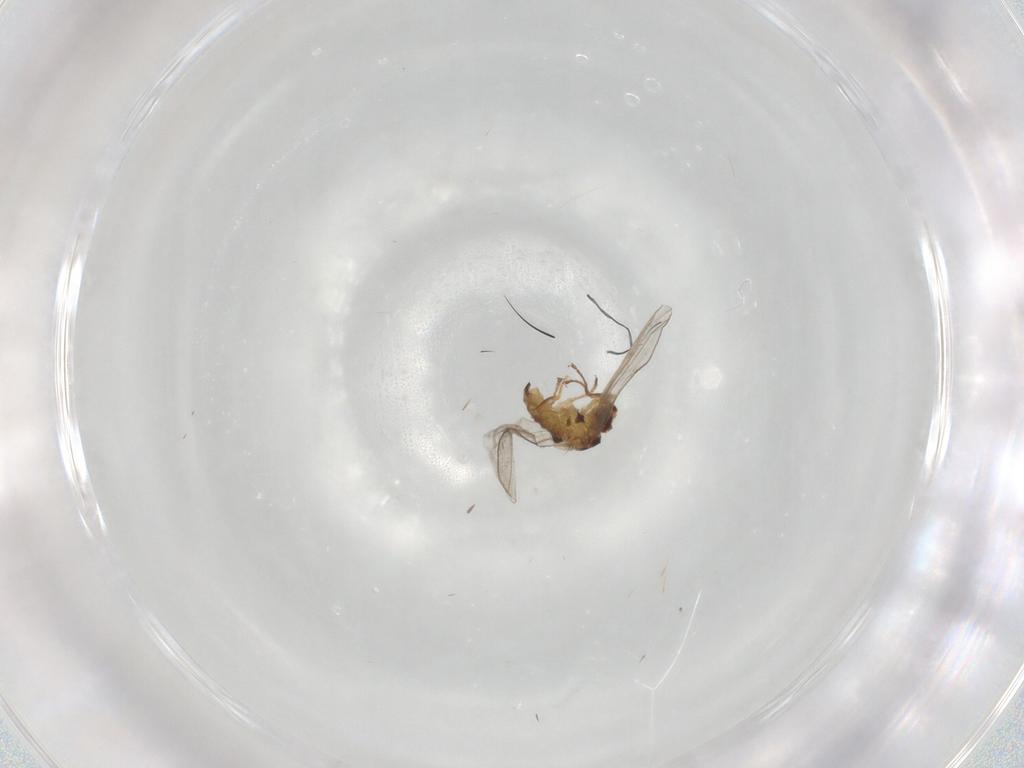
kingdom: Animalia
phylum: Arthropoda
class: Insecta
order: Diptera
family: Chloropidae
